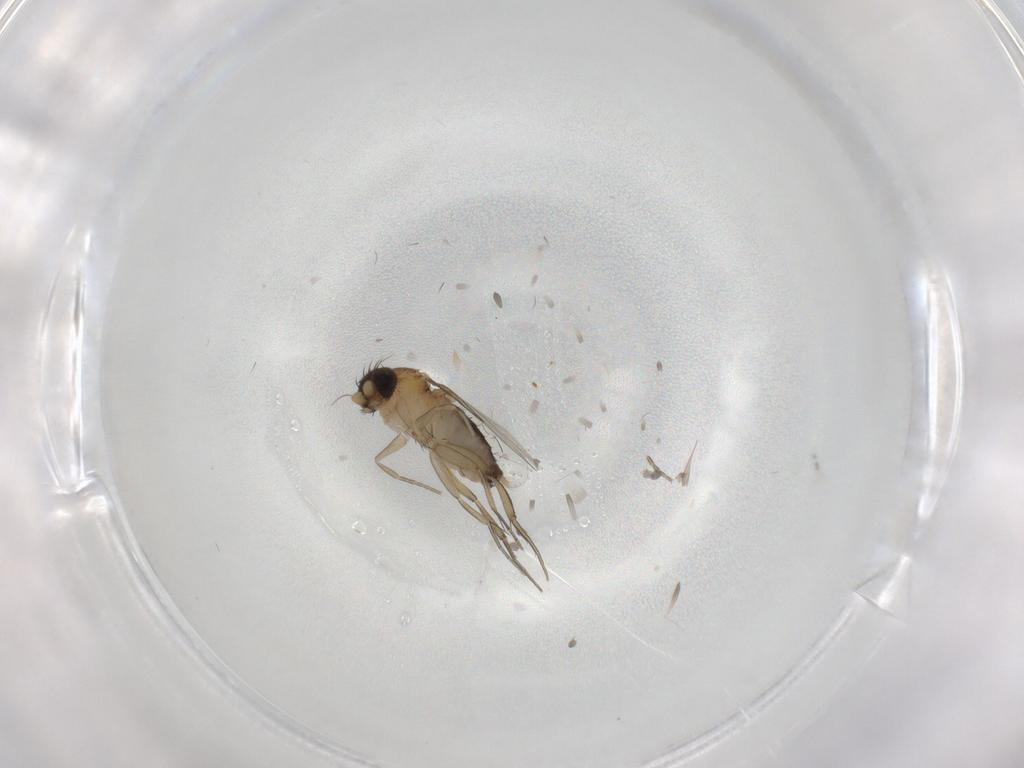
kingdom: Animalia
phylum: Arthropoda
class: Insecta
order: Diptera
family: Phoridae
